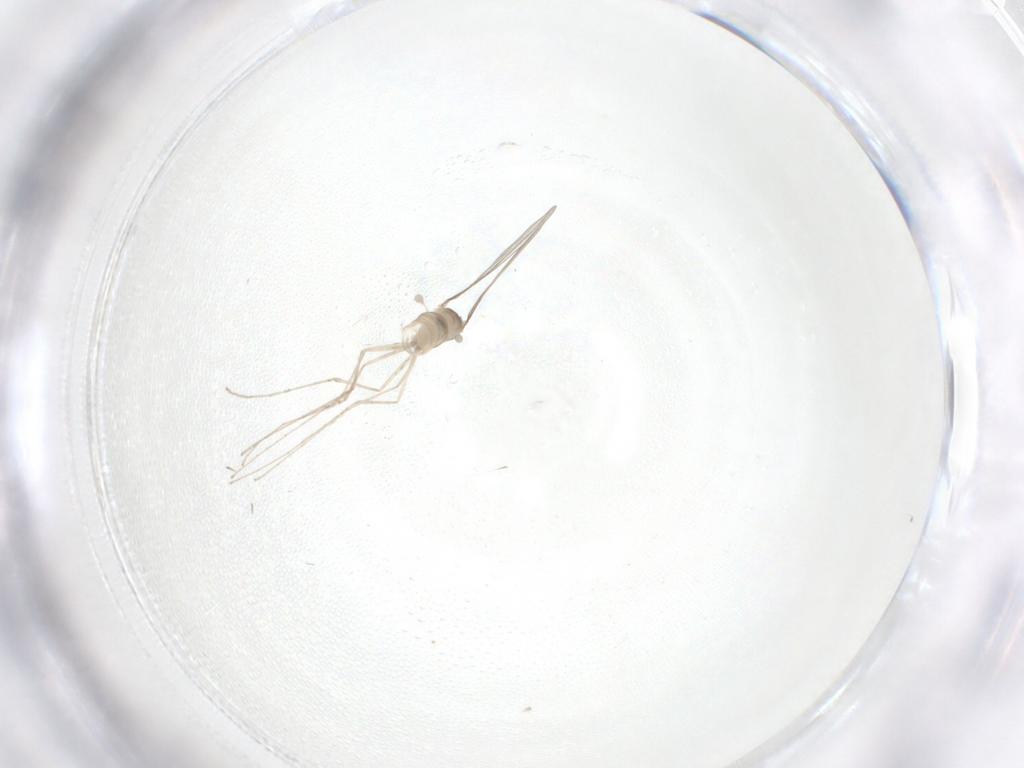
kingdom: Animalia
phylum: Arthropoda
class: Insecta
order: Diptera
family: Cecidomyiidae
